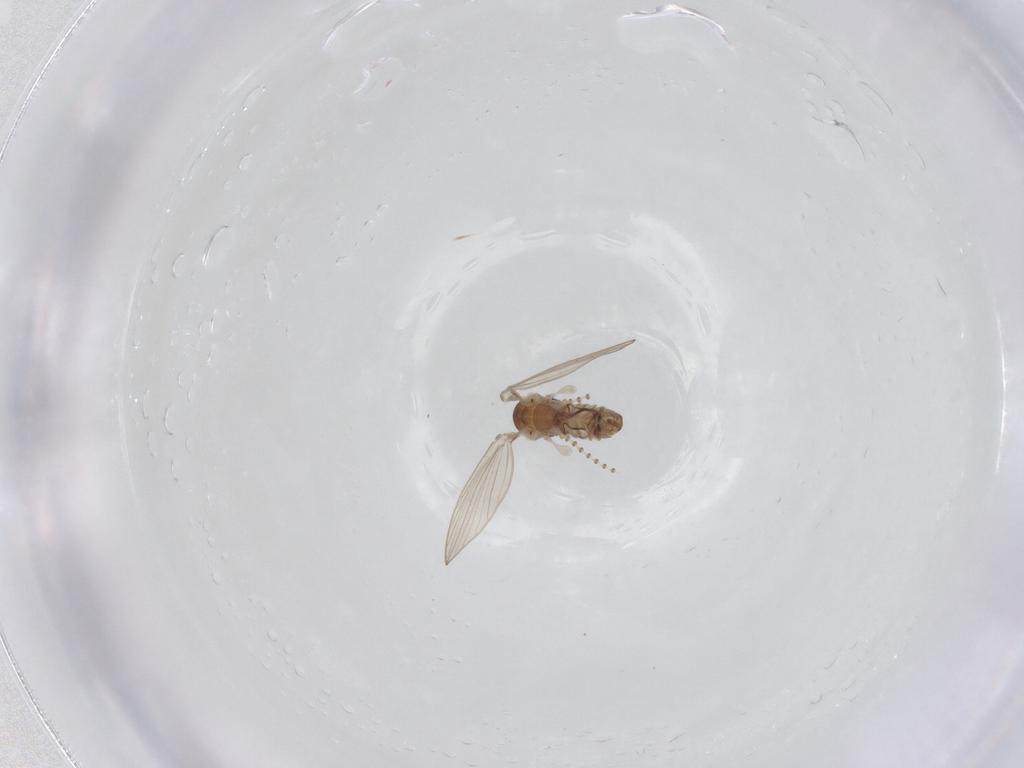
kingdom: Animalia
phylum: Arthropoda
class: Insecta
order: Diptera
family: Psychodidae
